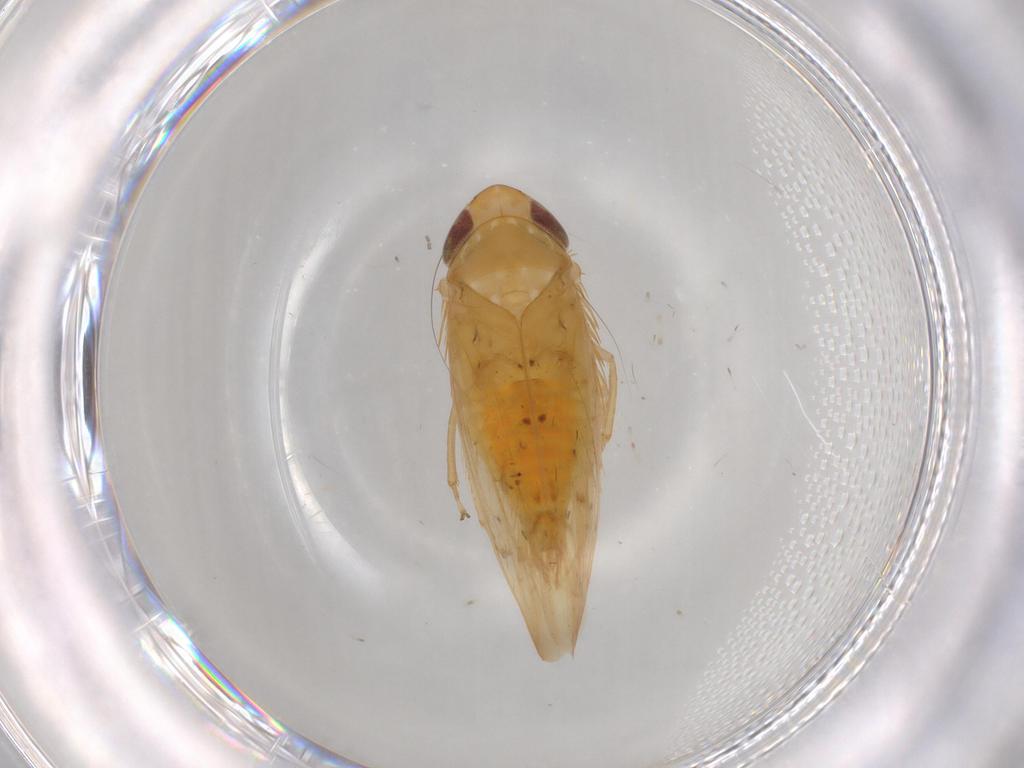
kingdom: Animalia
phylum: Arthropoda
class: Insecta
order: Hemiptera
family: Cicadellidae
